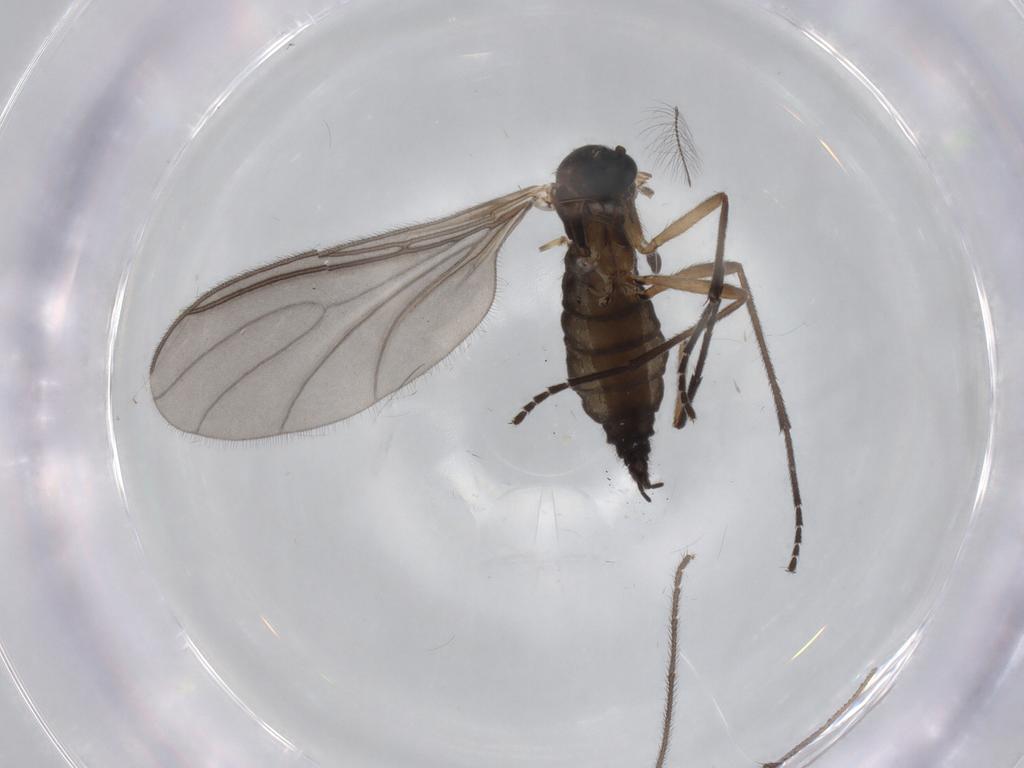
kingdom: Animalia
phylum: Arthropoda
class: Insecta
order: Diptera
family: Sciaridae
